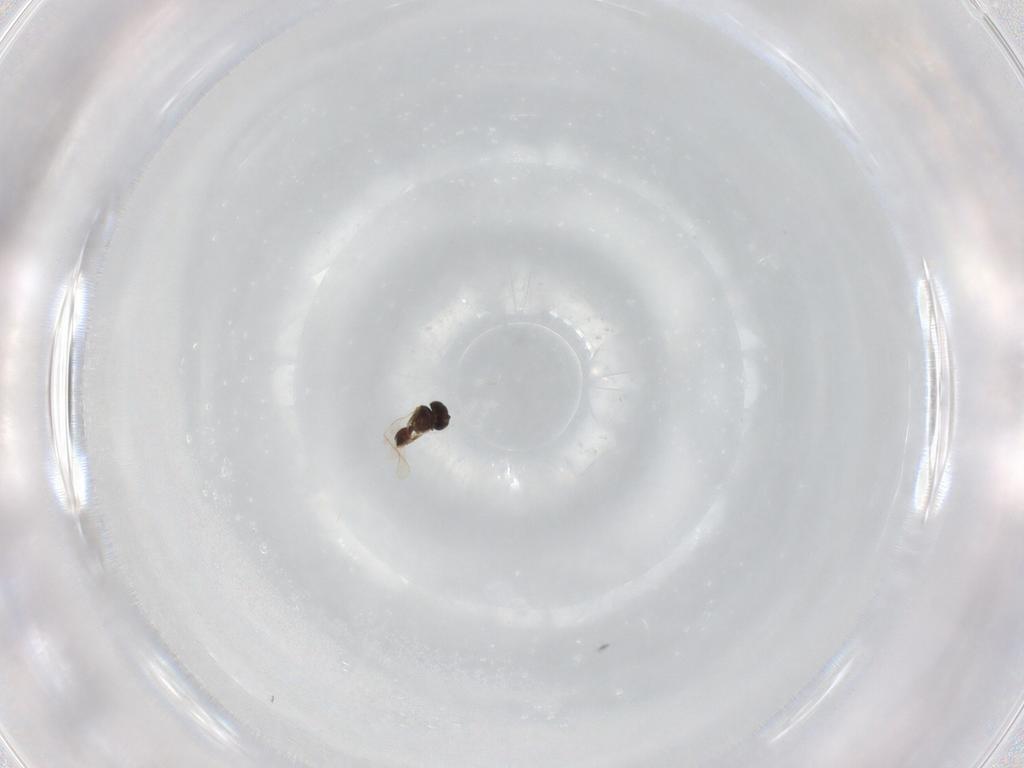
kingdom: Animalia
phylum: Arthropoda
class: Insecta
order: Hymenoptera
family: Scelionidae
